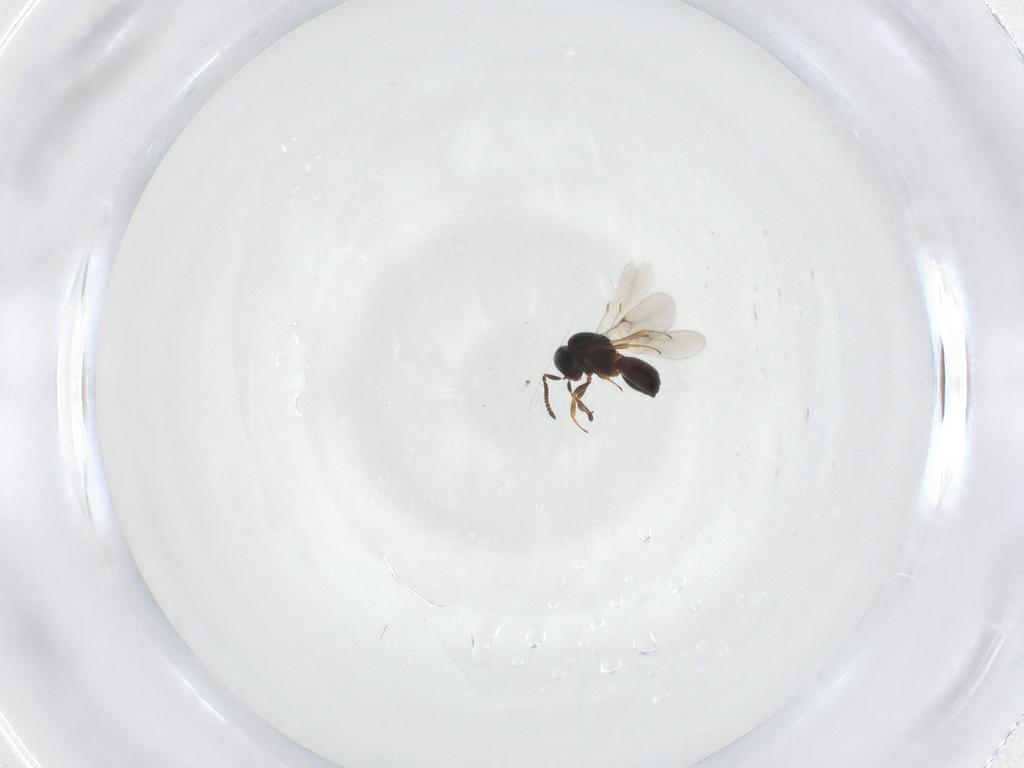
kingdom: Animalia
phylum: Arthropoda
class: Insecta
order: Hymenoptera
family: Scelionidae
